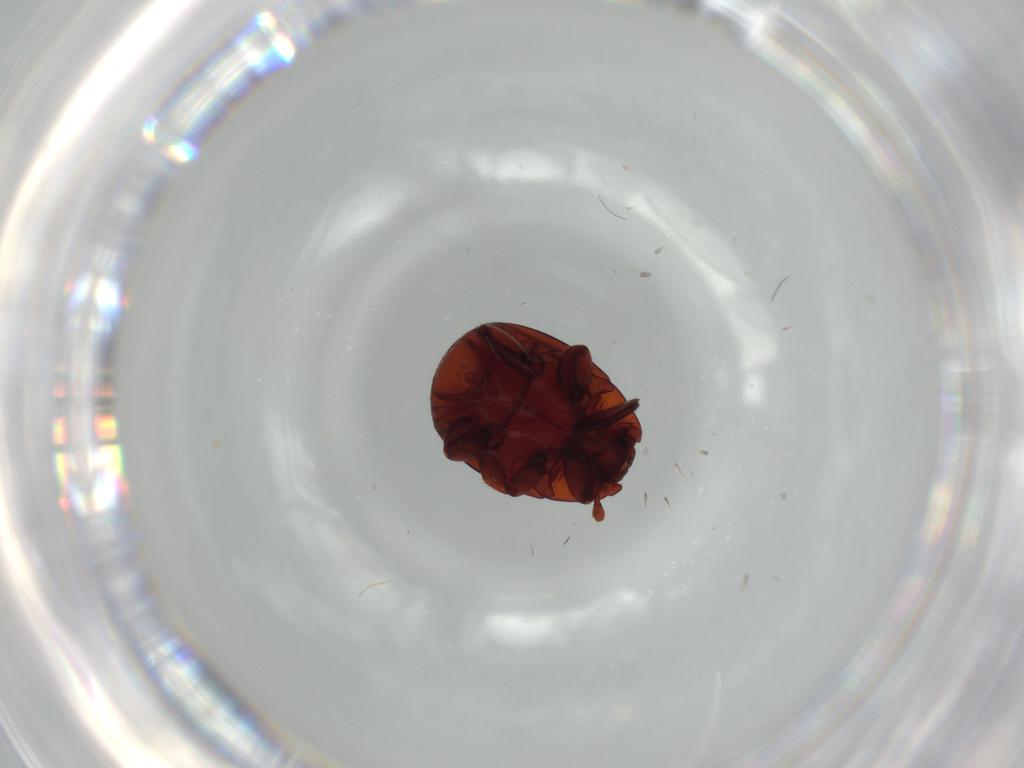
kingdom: Animalia
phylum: Arthropoda
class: Insecta
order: Coleoptera
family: Chrysomelidae
